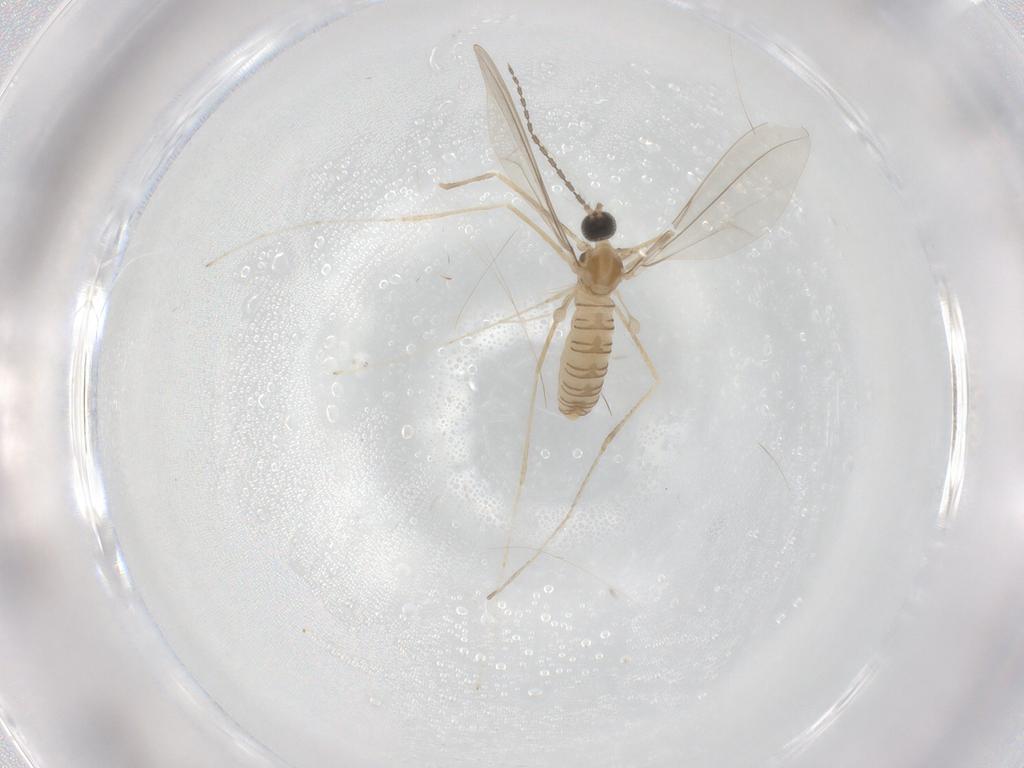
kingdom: Animalia
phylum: Arthropoda
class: Insecta
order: Diptera
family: Cecidomyiidae
